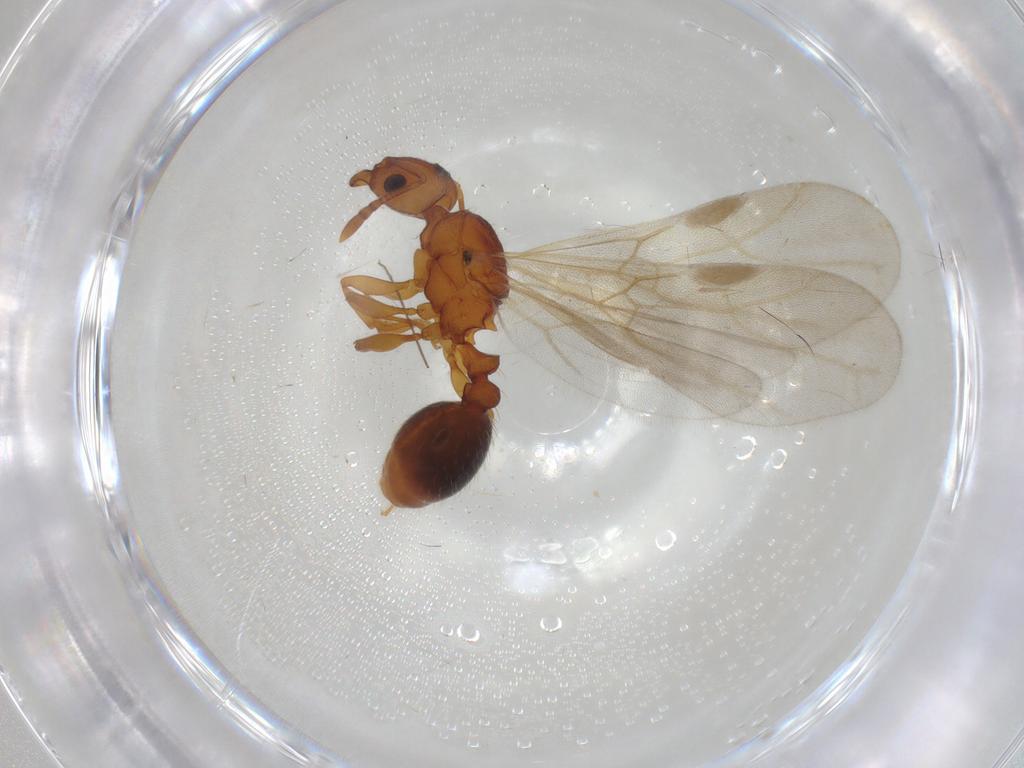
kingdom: Animalia
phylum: Arthropoda
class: Insecta
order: Hymenoptera
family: Formicidae
